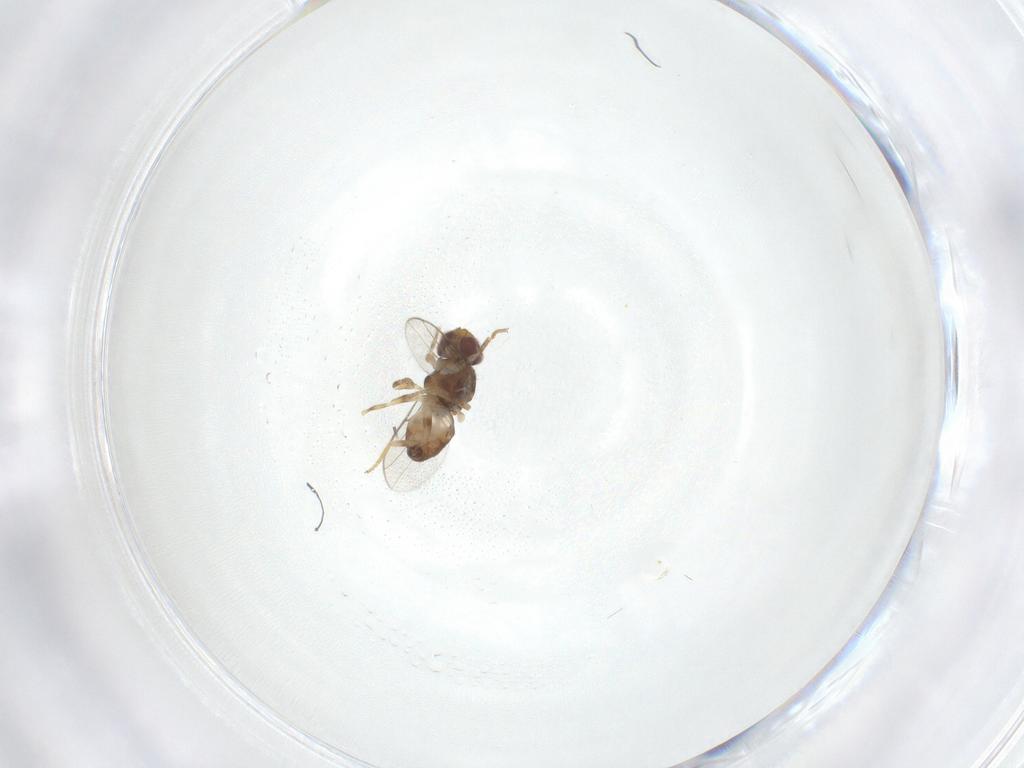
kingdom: Animalia
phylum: Arthropoda
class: Insecta
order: Diptera
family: Chloropidae
